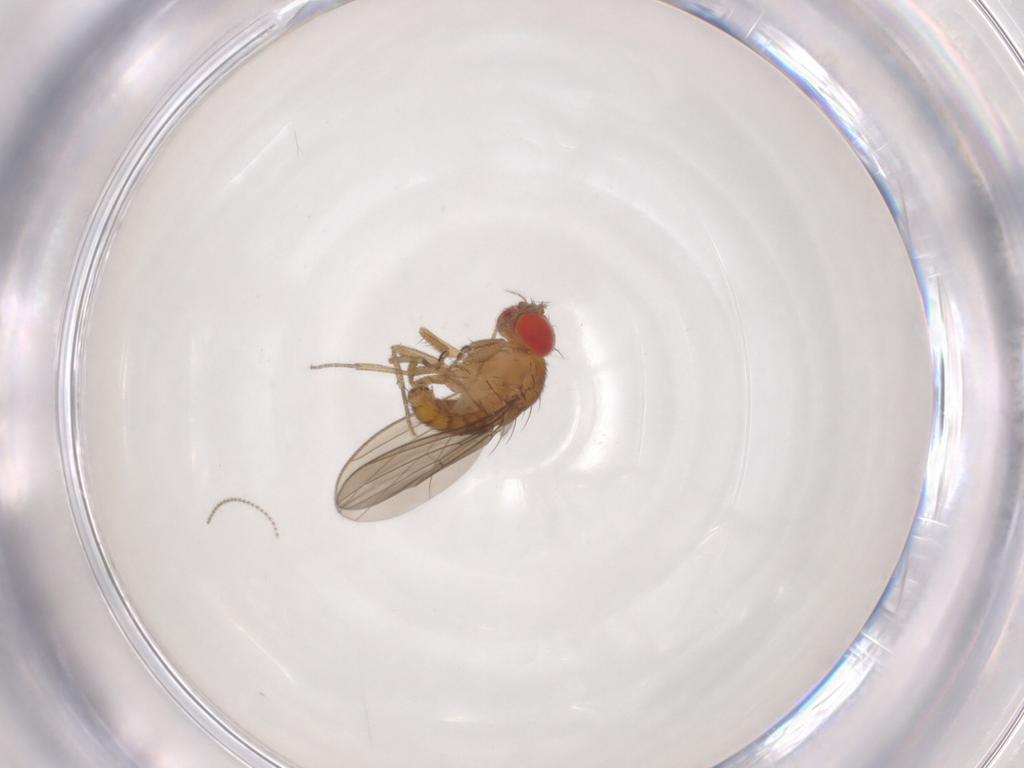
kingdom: Animalia
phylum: Arthropoda
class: Insecta
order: Diptera
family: Drosophilidae
